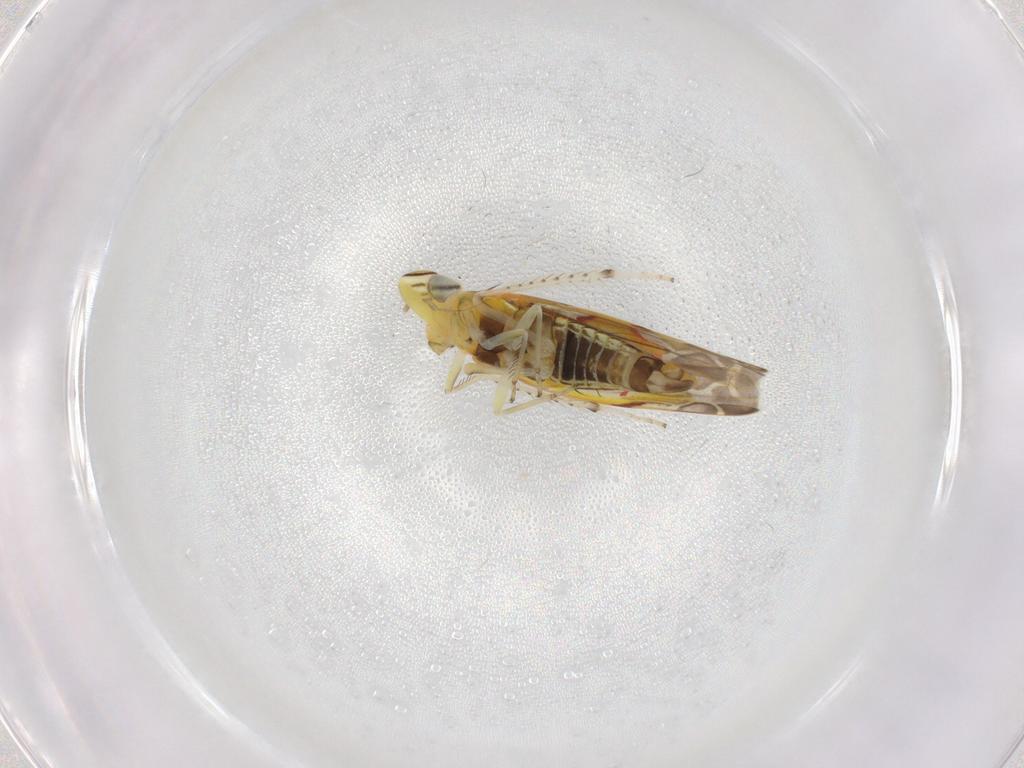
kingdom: Animalia
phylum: Arthropoda
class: Insecta
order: Hemiptera
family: Cicadellidae
